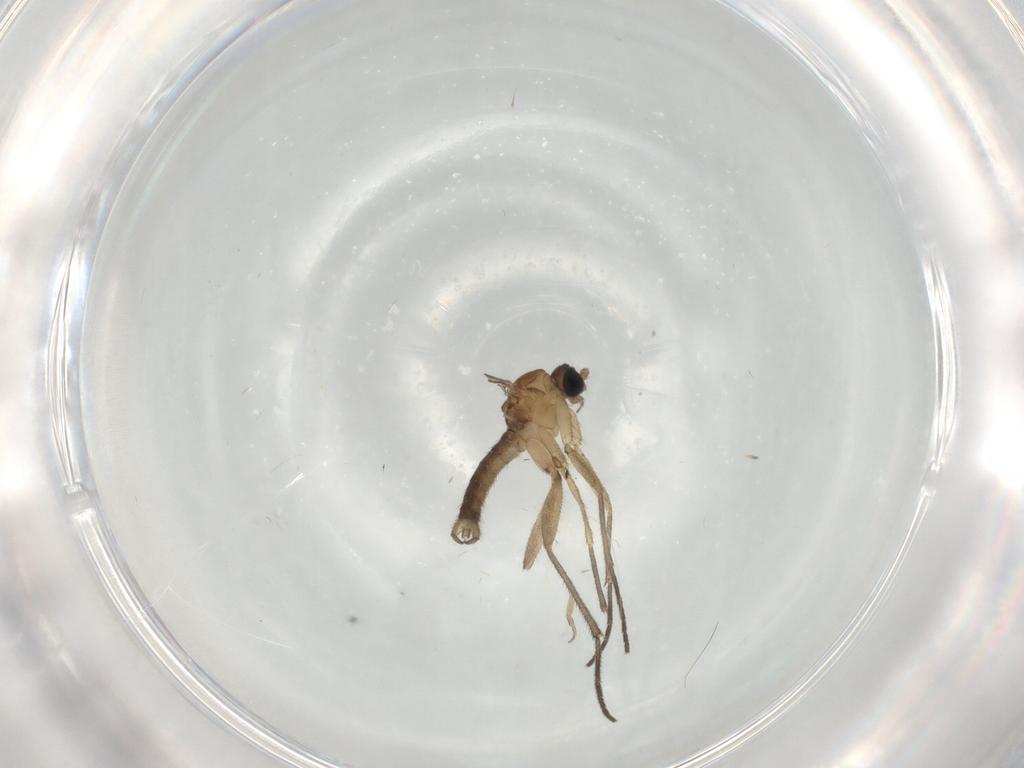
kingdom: Animalia
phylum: Arthropoda
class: Insecta
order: Diptera
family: Sciaridae
